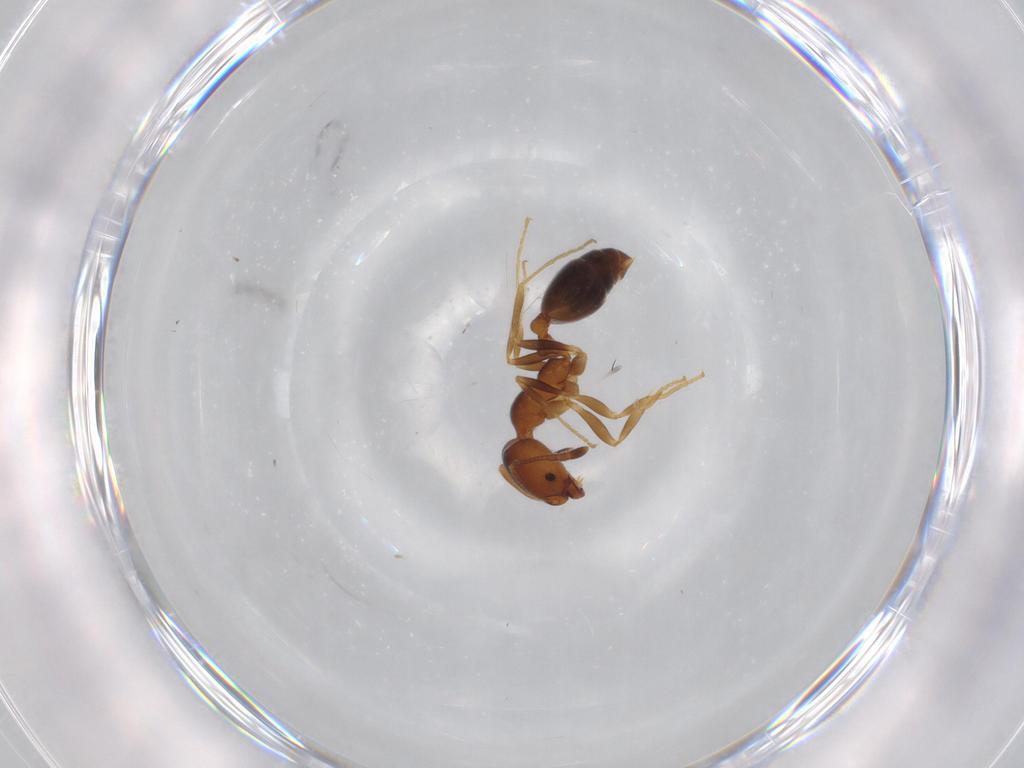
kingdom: Animalia
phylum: Arthropoda
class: Insecta
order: Hymenoptera
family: Formicidae
